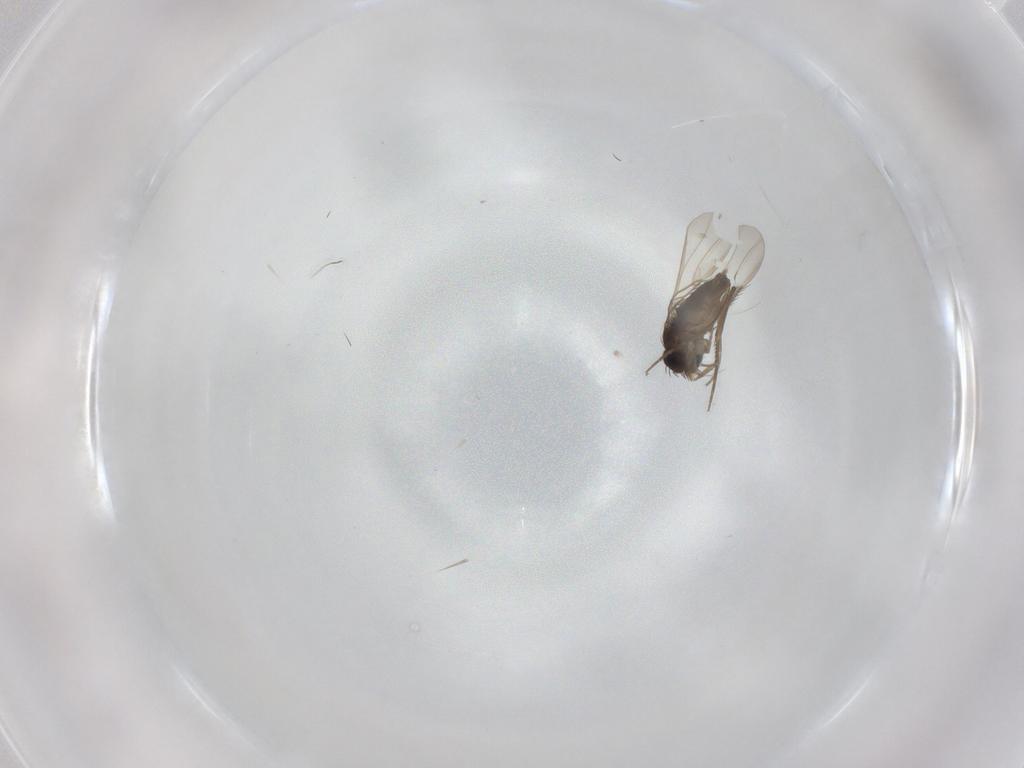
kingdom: Animalia
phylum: Arthropoda
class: Insecta
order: Diptera
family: Phoridae
